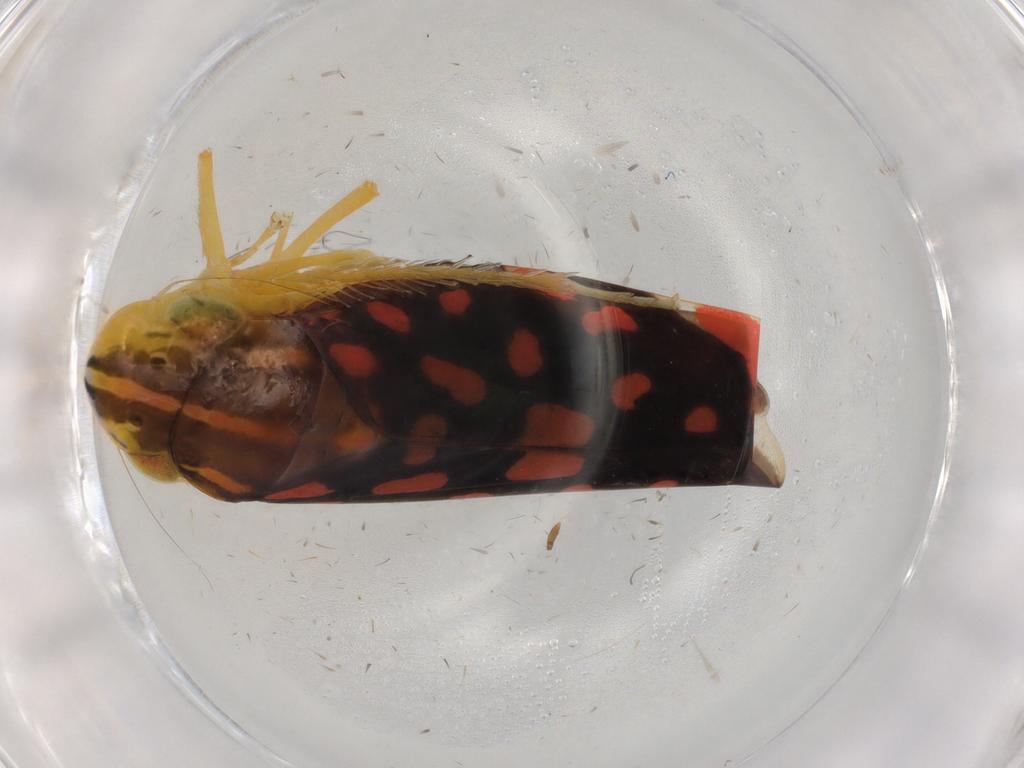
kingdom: Animalia
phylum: Arthropoda
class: Insecta
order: Hemiptera
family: Cicadellidae
